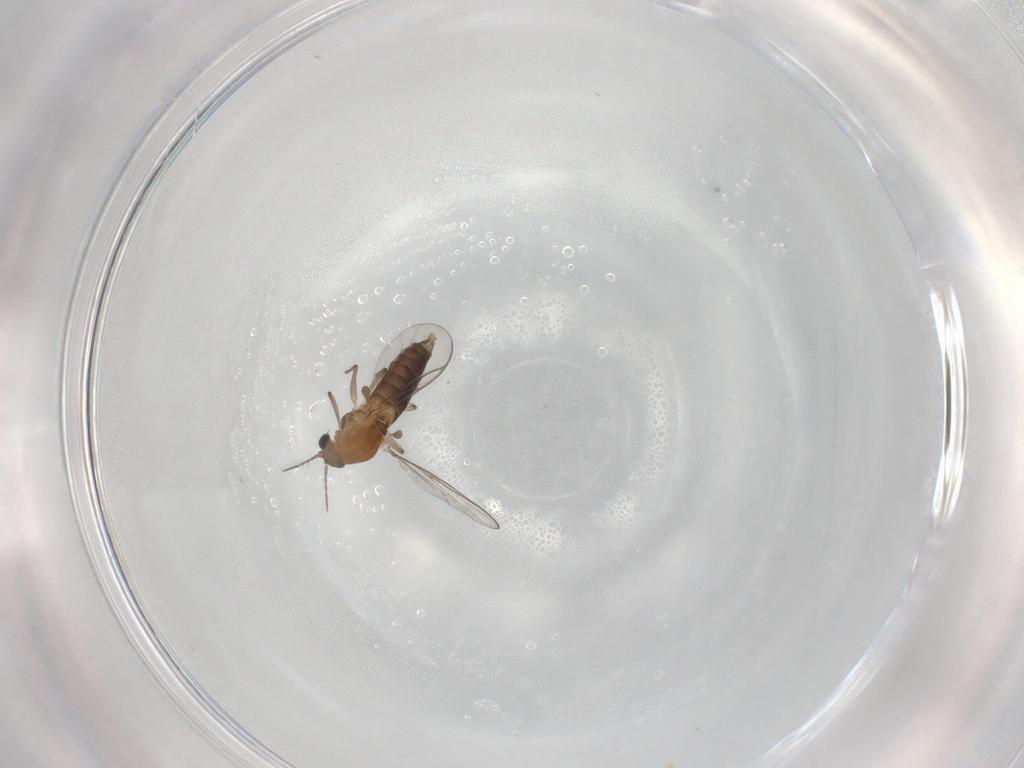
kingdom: Animalia
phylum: Arthropoda
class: Insecta
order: Diptera
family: Chironomidae
